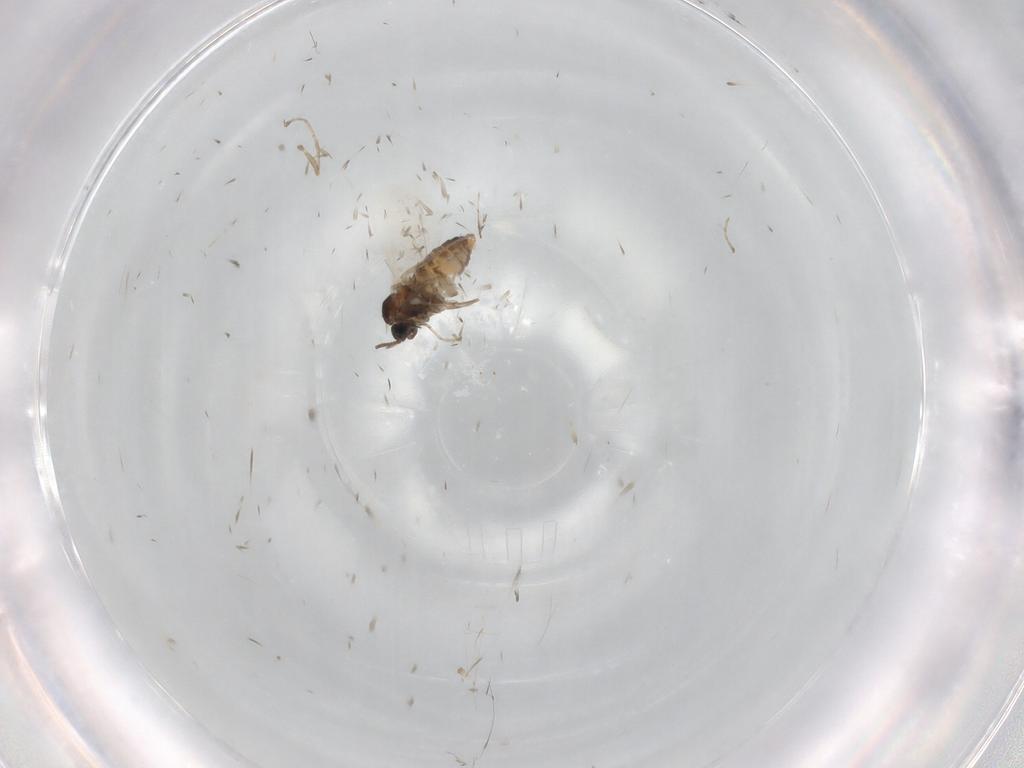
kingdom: Animalia
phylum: Arthropoda
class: Insecta
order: Diptera
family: Cecidomyiidae
